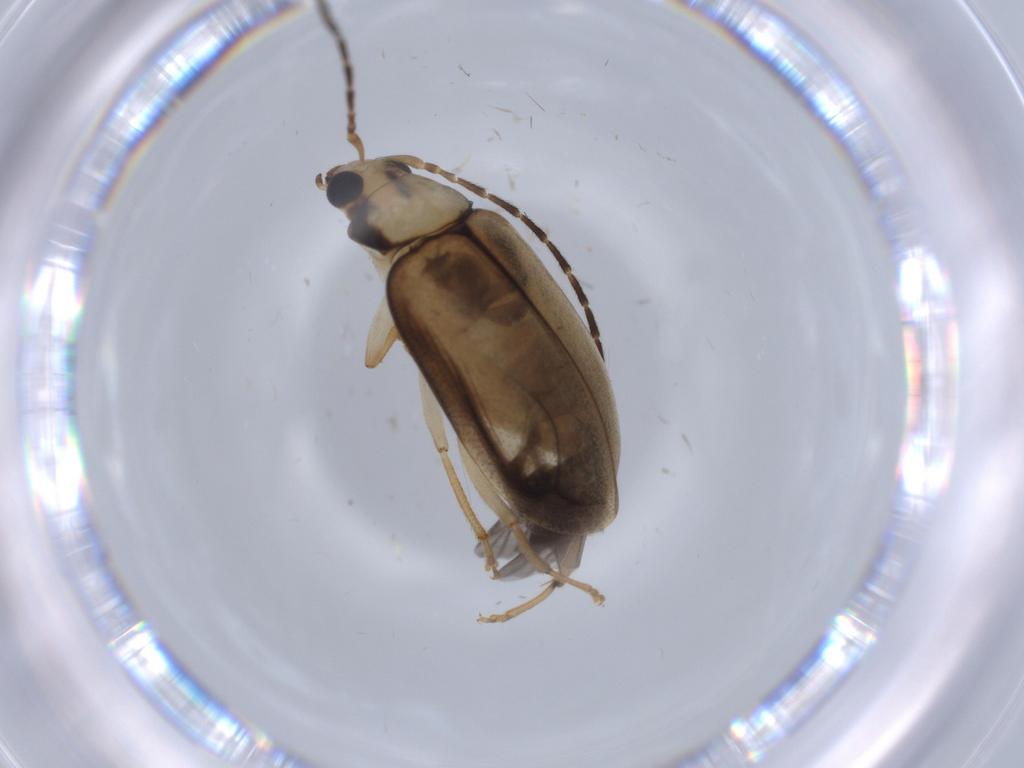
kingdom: Animalia
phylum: Arthropoda
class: Insecta
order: Coleoptera
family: Chrysomelidae
